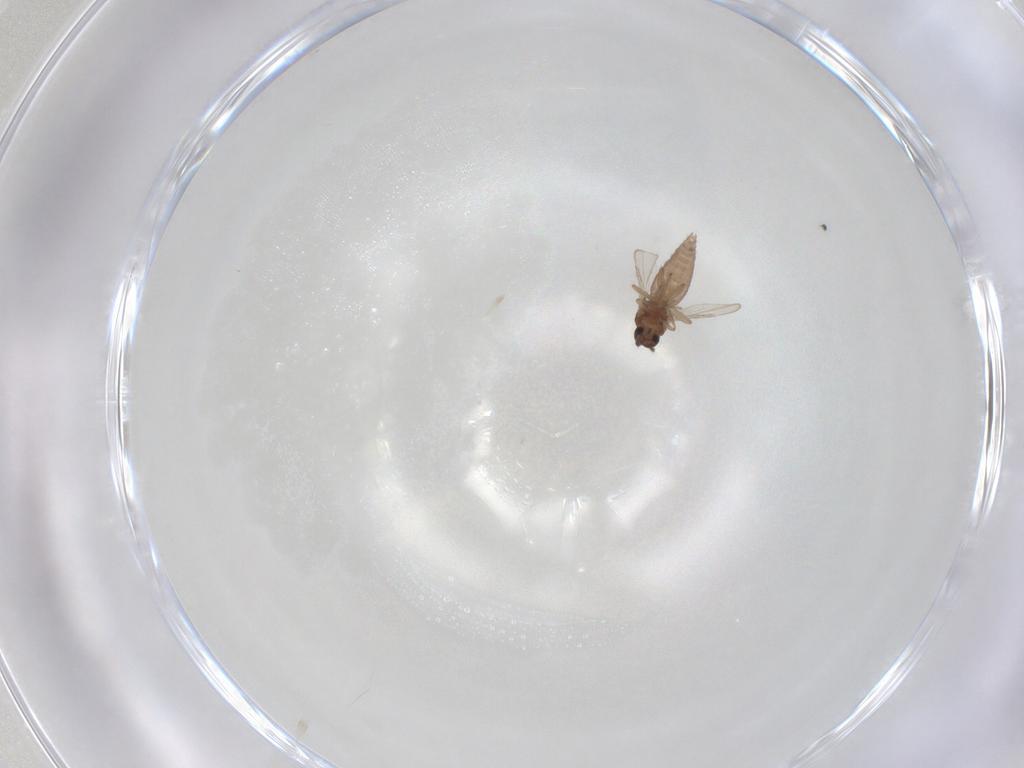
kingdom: Animalia
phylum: Arthropoda
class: Insecta
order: Diptera
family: Ceratopogonidae
